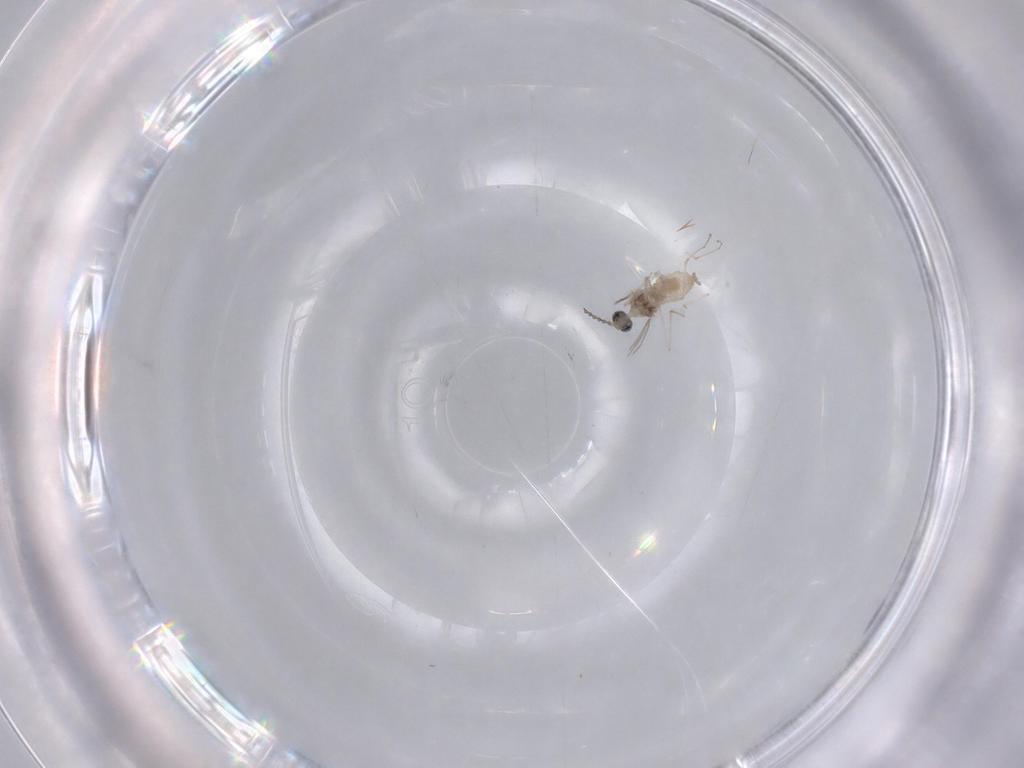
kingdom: Animalia
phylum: Arthropoda
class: Insecta
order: Diptera
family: Cecidomyiidae
